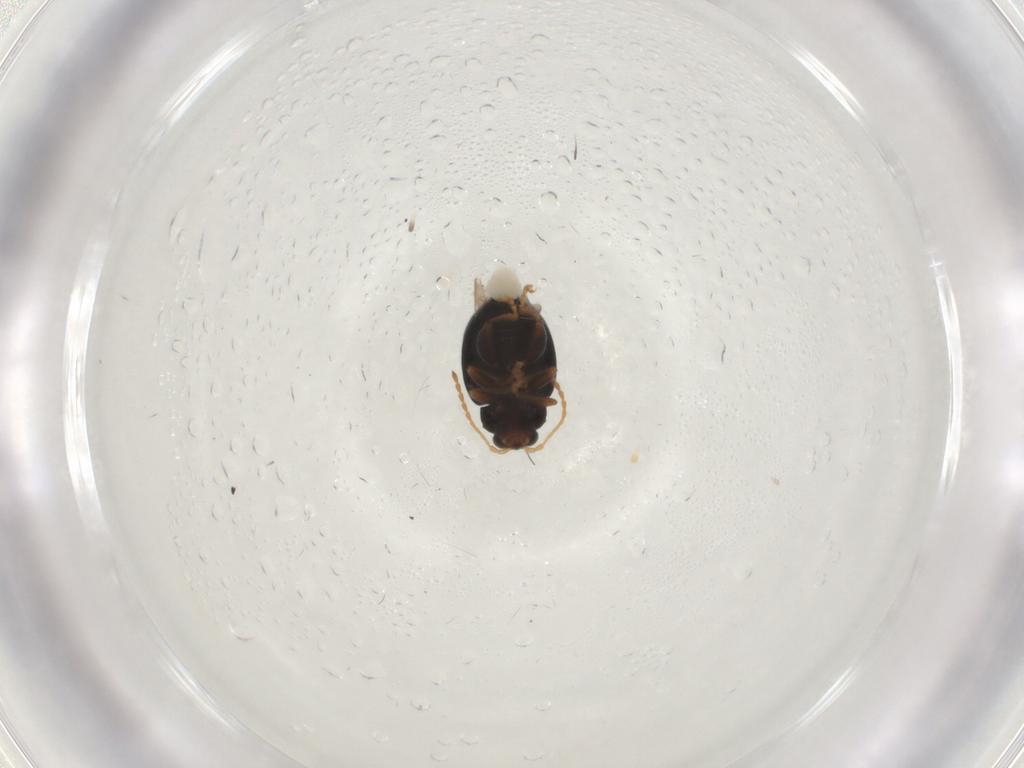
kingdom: Animalia
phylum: Arthropoda
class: Insecta
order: Coleoptera
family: Chrysomelidae
